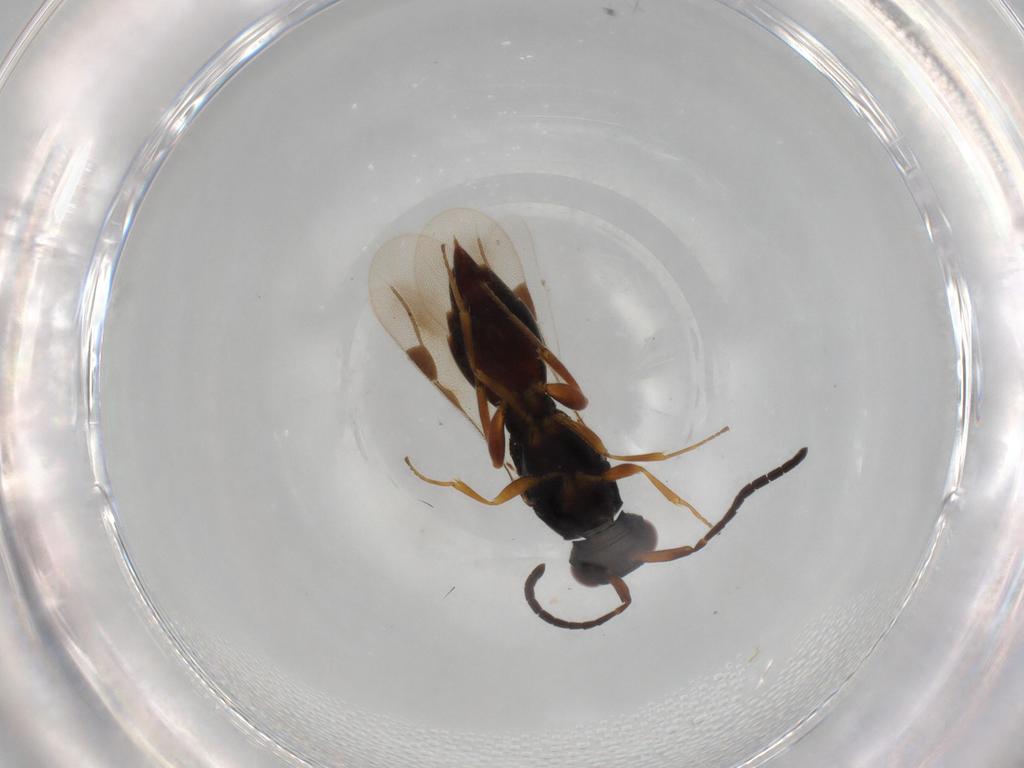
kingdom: Animalia
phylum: Arthropoda
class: Insecta
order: Hymenoptera
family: Megaspilidae
